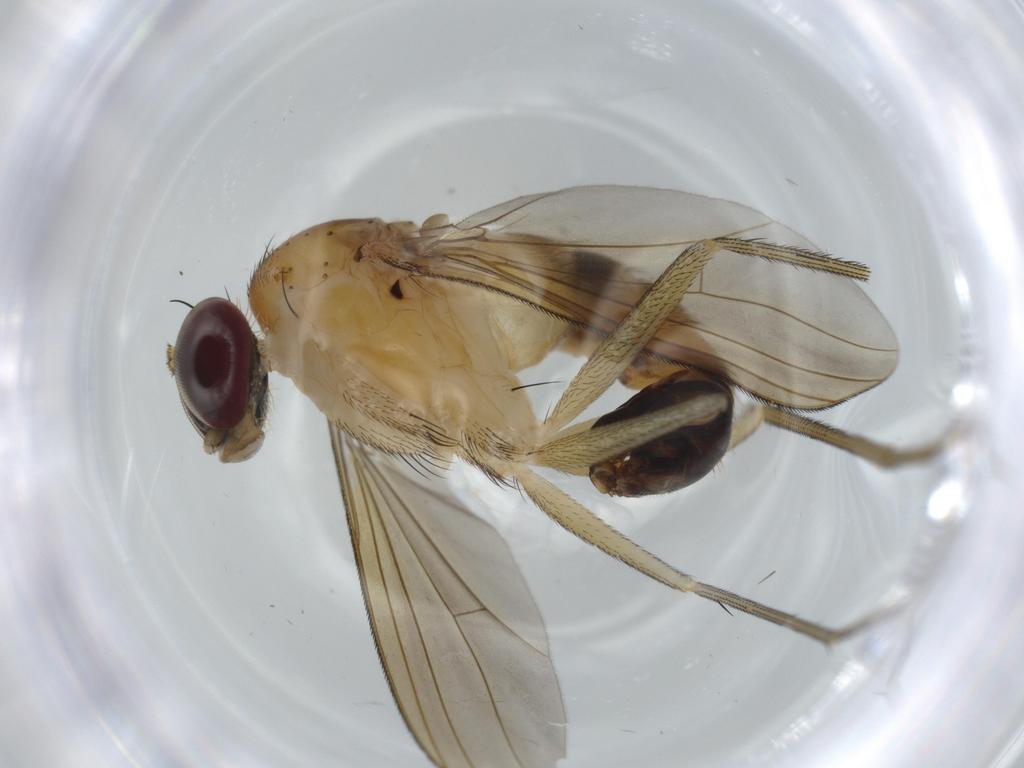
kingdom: Animalia
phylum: Arthropoda
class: Insecta
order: Diptera
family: Dolichopodidae
